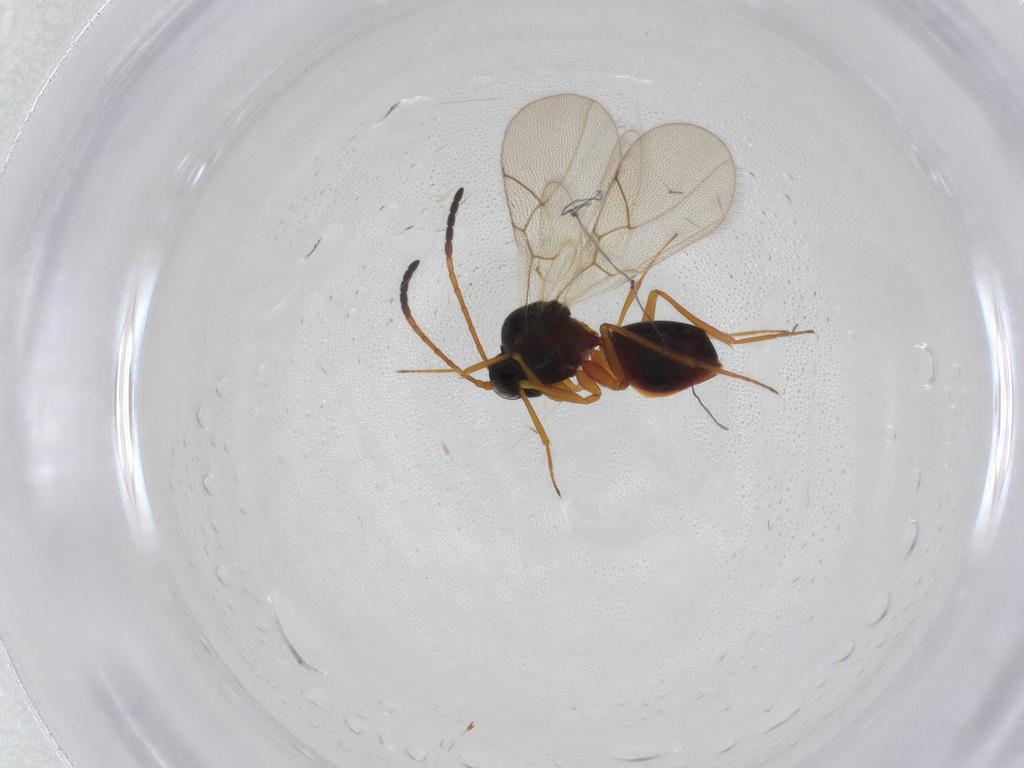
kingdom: Animalia
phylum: Arthropoda
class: Insecta
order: Hymenoptera
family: Figitidae
